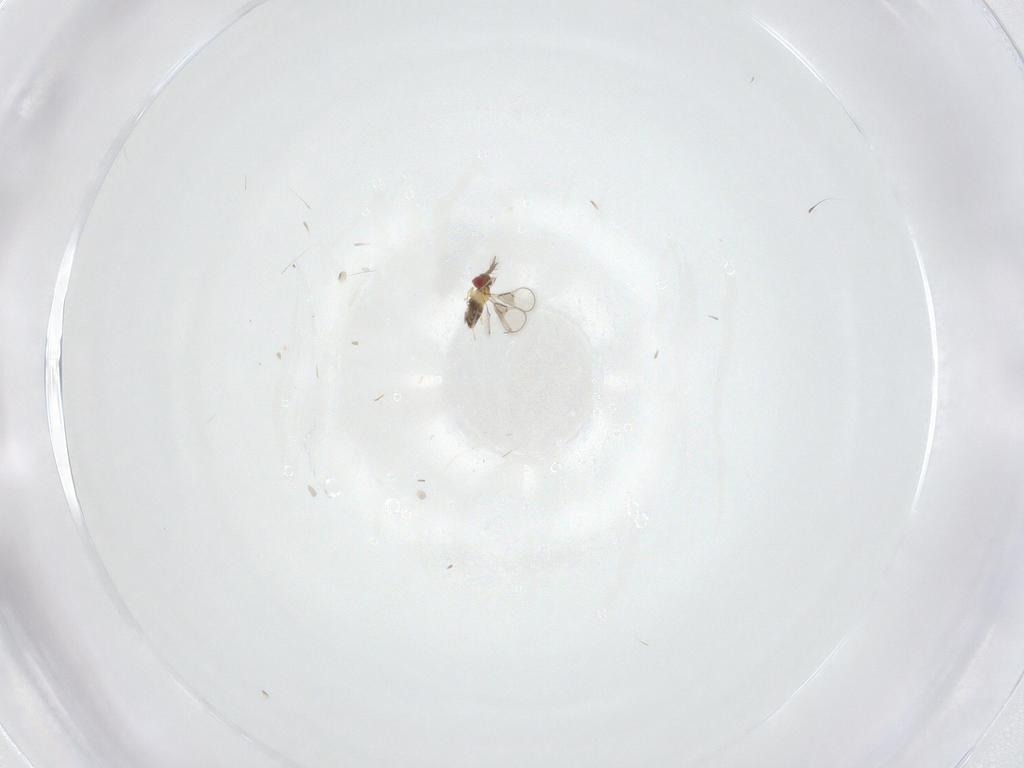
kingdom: Animalia
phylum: Arthropoda
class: Insecta
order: Hymenoptera
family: Trichogrammatidae
